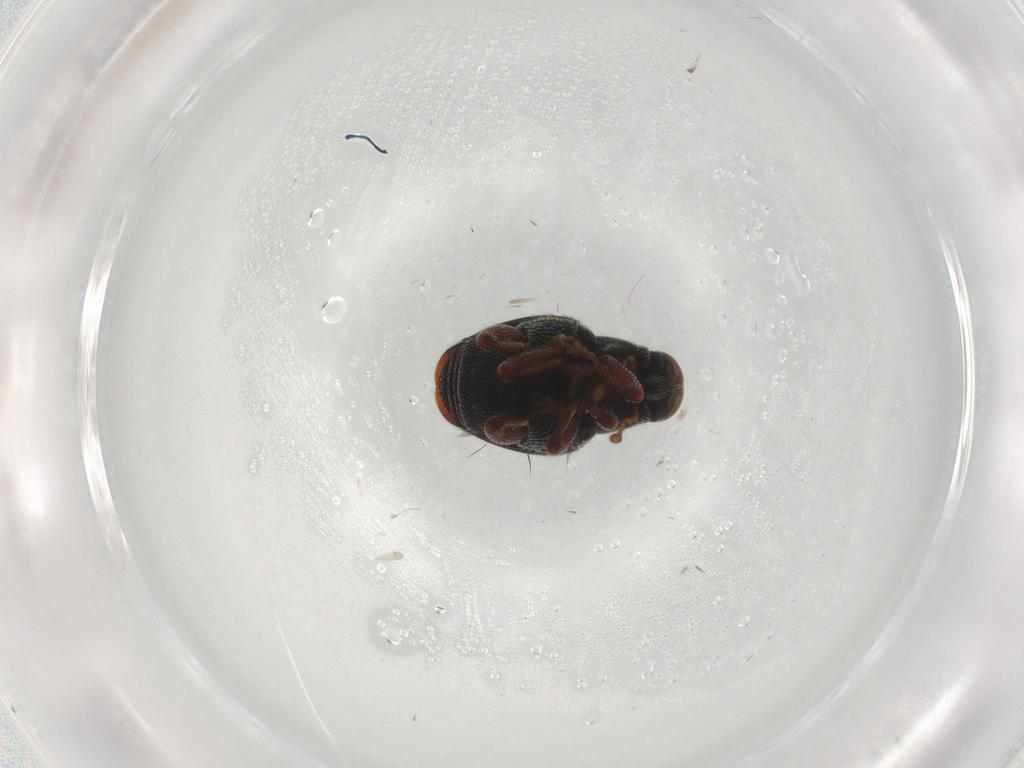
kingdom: Animalia
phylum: Arthropoda
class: Insecta
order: Coleoptera
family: Curculionidae
